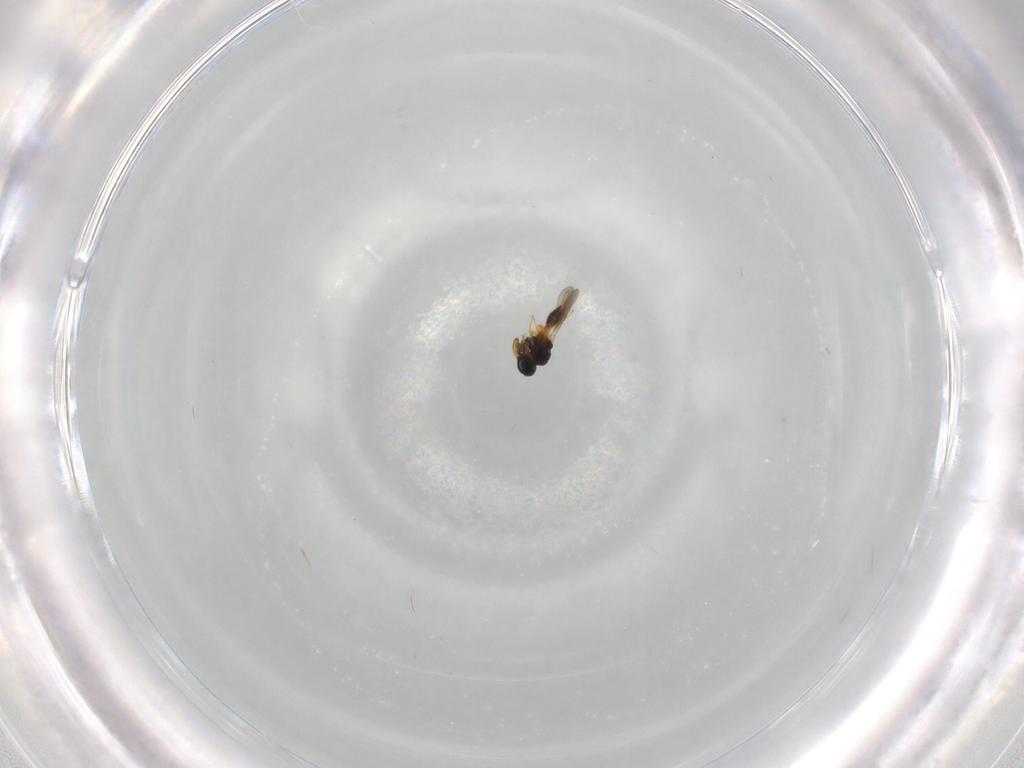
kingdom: Animalia
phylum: Arthropoda
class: Insecta
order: Hymenoptera
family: Platygastridae
